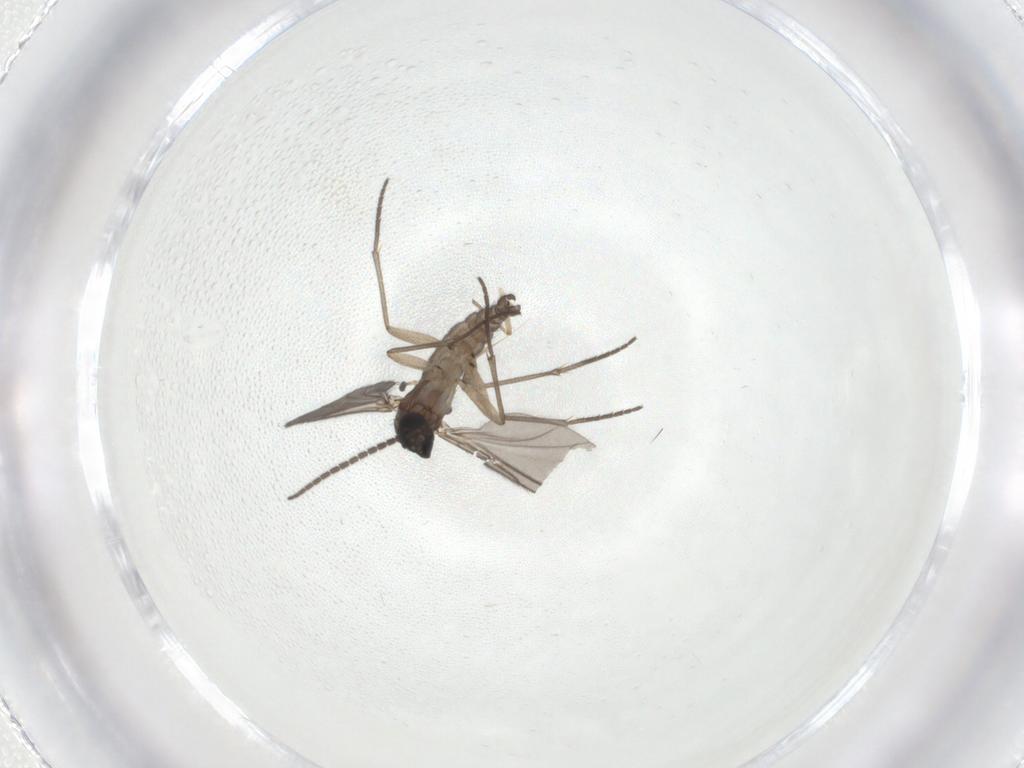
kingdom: Animalia
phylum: Arthropoda
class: Insecta
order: Diptera
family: Sciaridae
